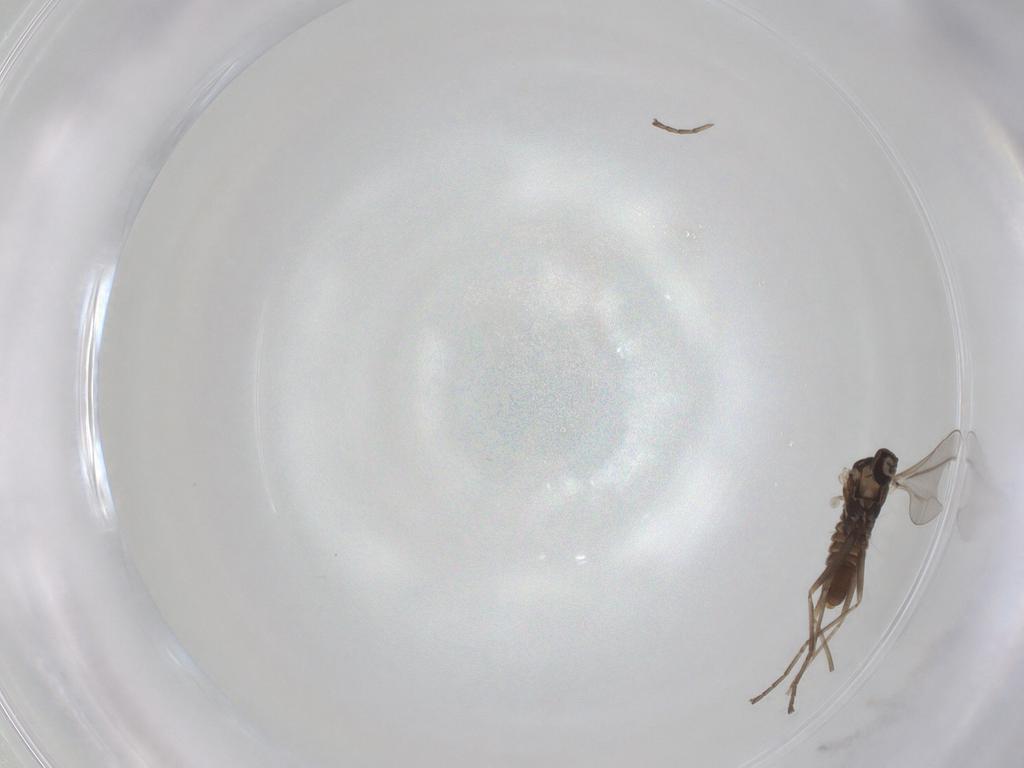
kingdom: Animalia
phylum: Arthropoda
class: Insecta
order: Diptera
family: Cecidomyiidae
